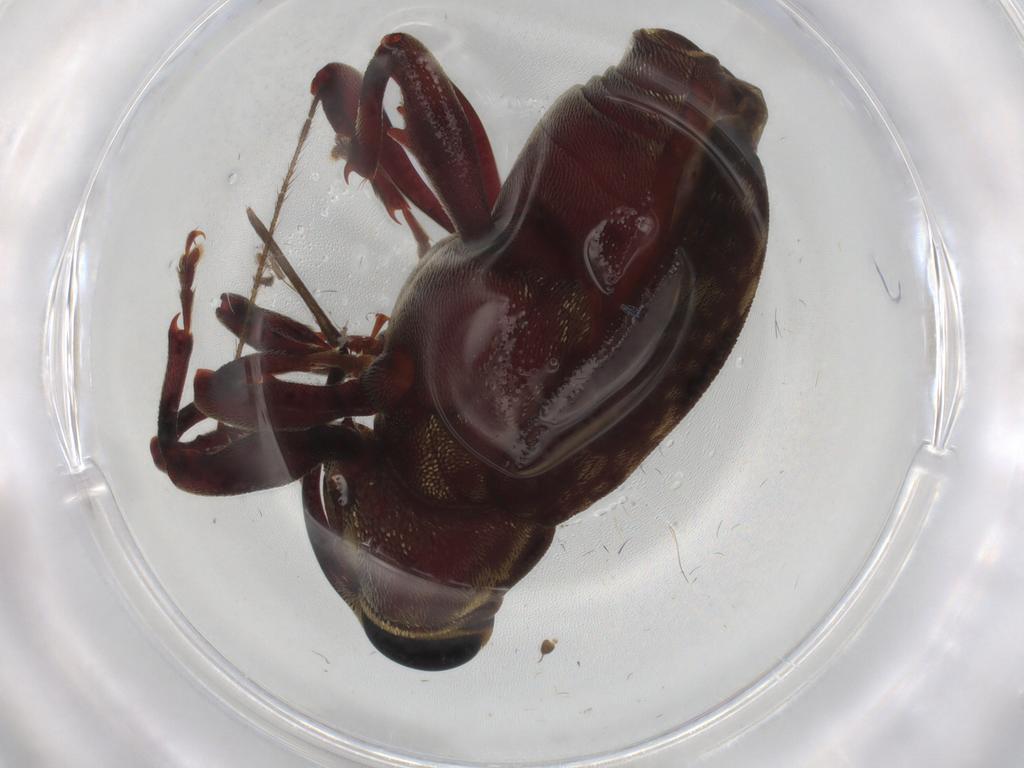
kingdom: Animalia
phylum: Arthropoda
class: Insecta
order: Coleoptera
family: Curculionidae
